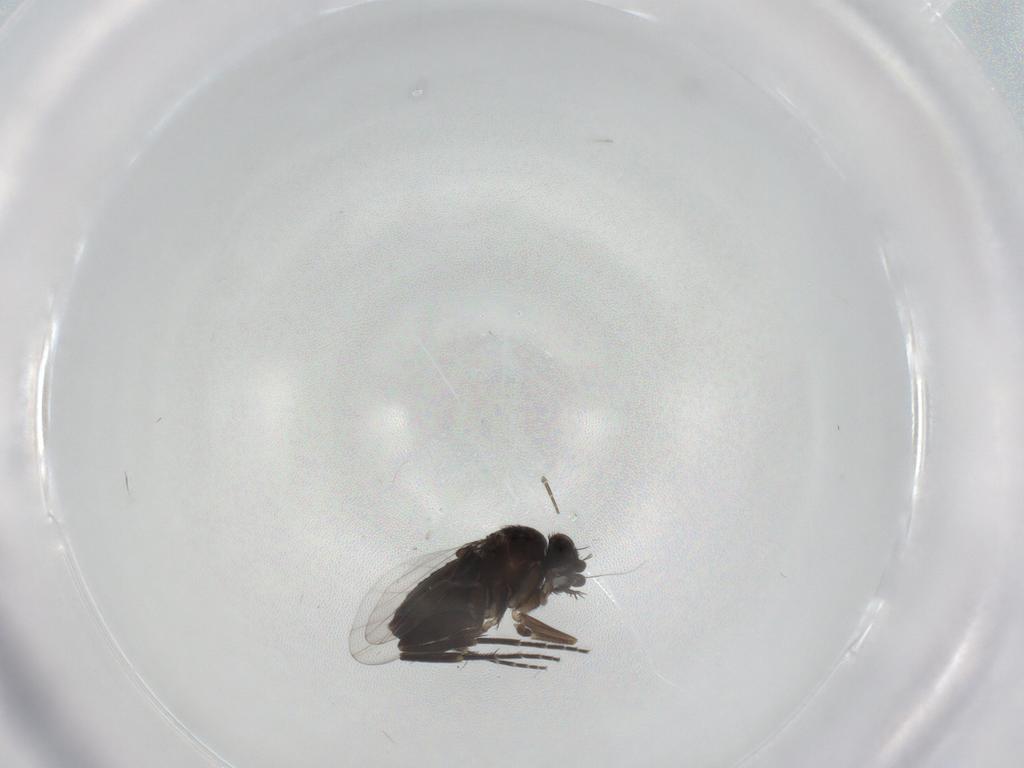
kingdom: Animalia
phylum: Arthropoda
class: Insecta
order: Diptera
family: Phoridae
